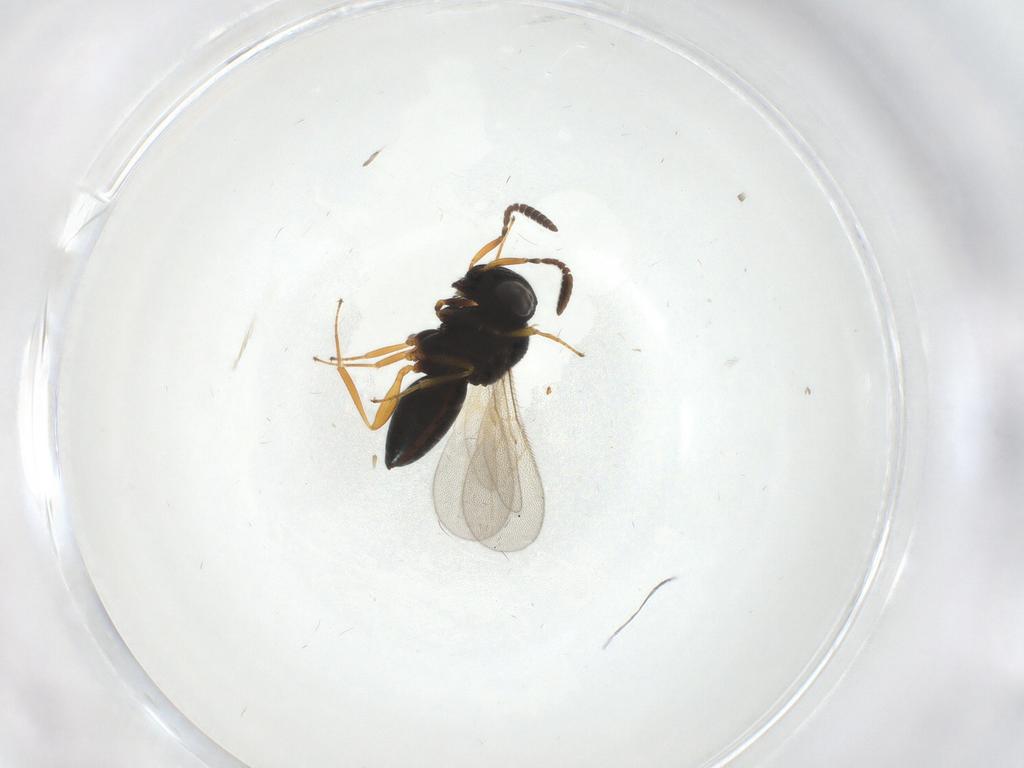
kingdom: Animalia
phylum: Arthropoda
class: Insecta
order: Hymenoptera
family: Scelionidae
